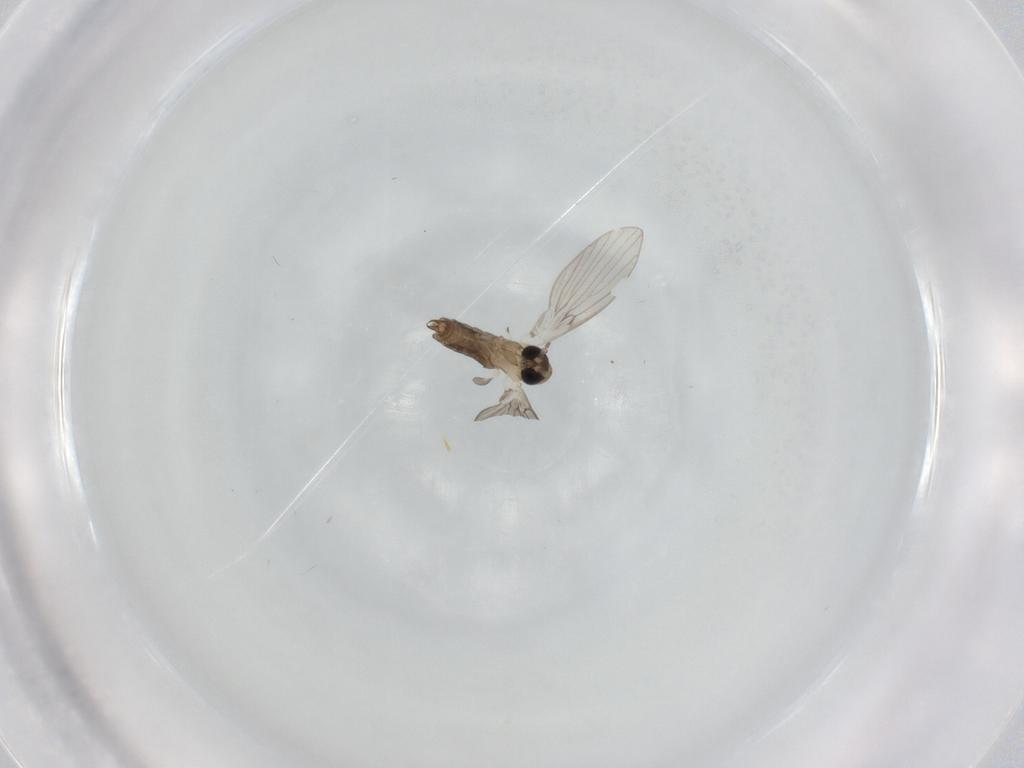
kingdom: Animalia
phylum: Arthropoda
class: Insecta
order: Diptera
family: Psychodidae
